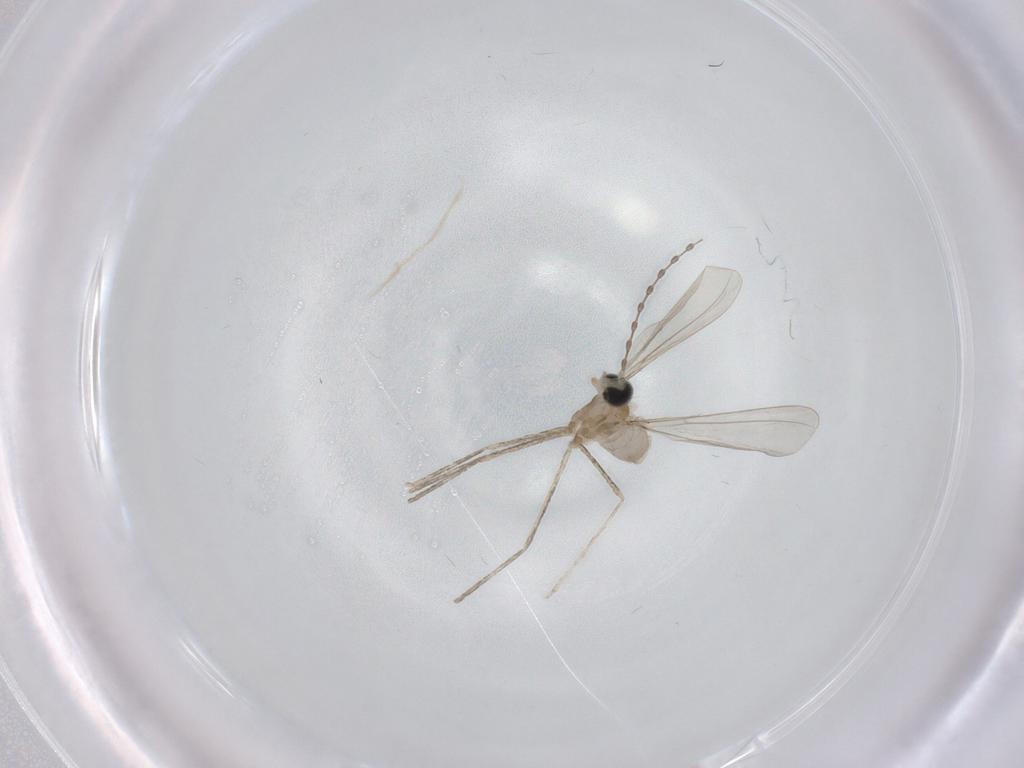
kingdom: Animalia
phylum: Arthropoda
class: Insecta
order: Diptera
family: Cecidomyiidae
